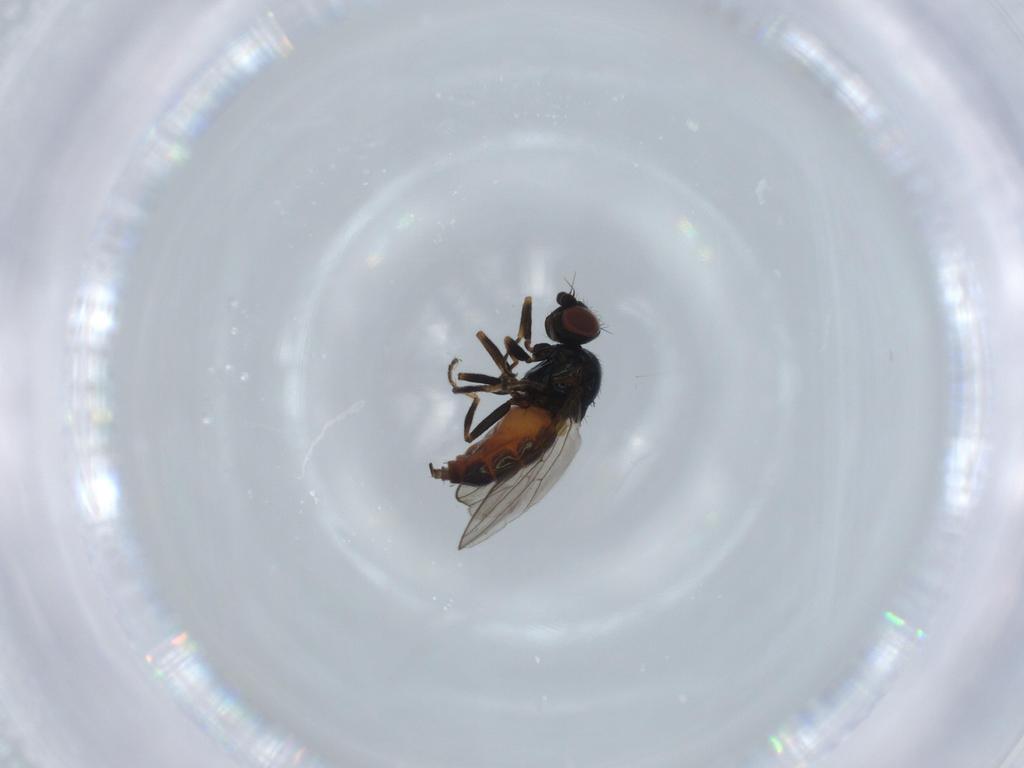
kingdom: Animalia
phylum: Arthropoda
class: Insecta
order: Diptera
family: Chloropidae
